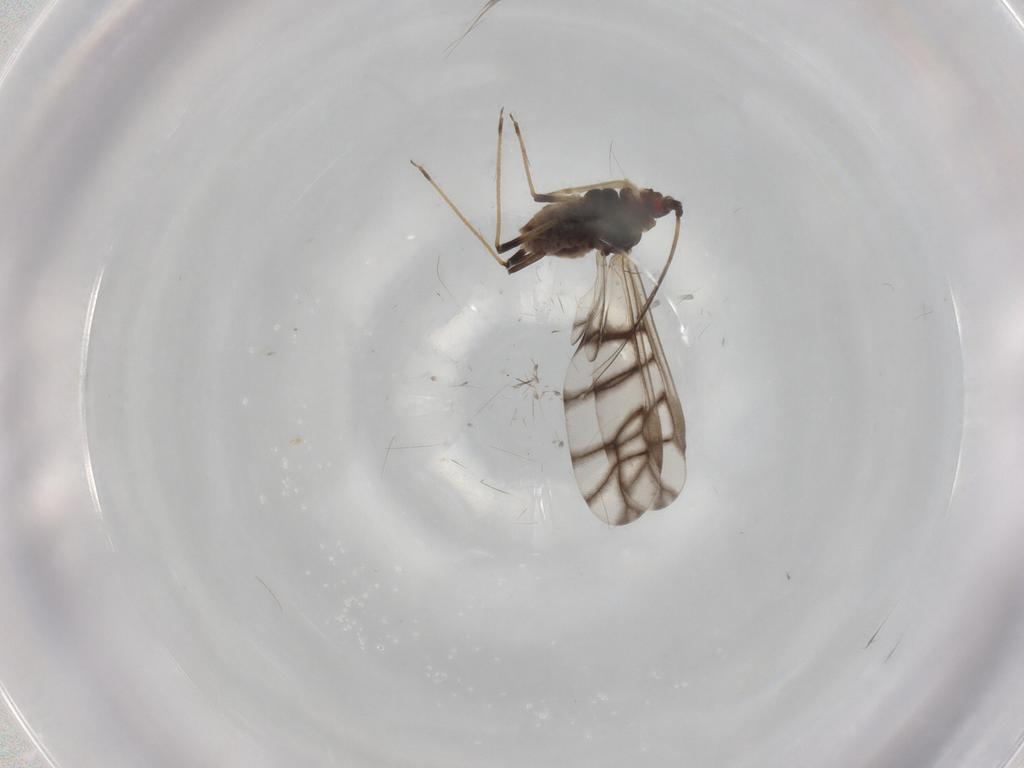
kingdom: Animalia
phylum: Arthropoda
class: Insecta
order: Hemiptera
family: Aphididae
